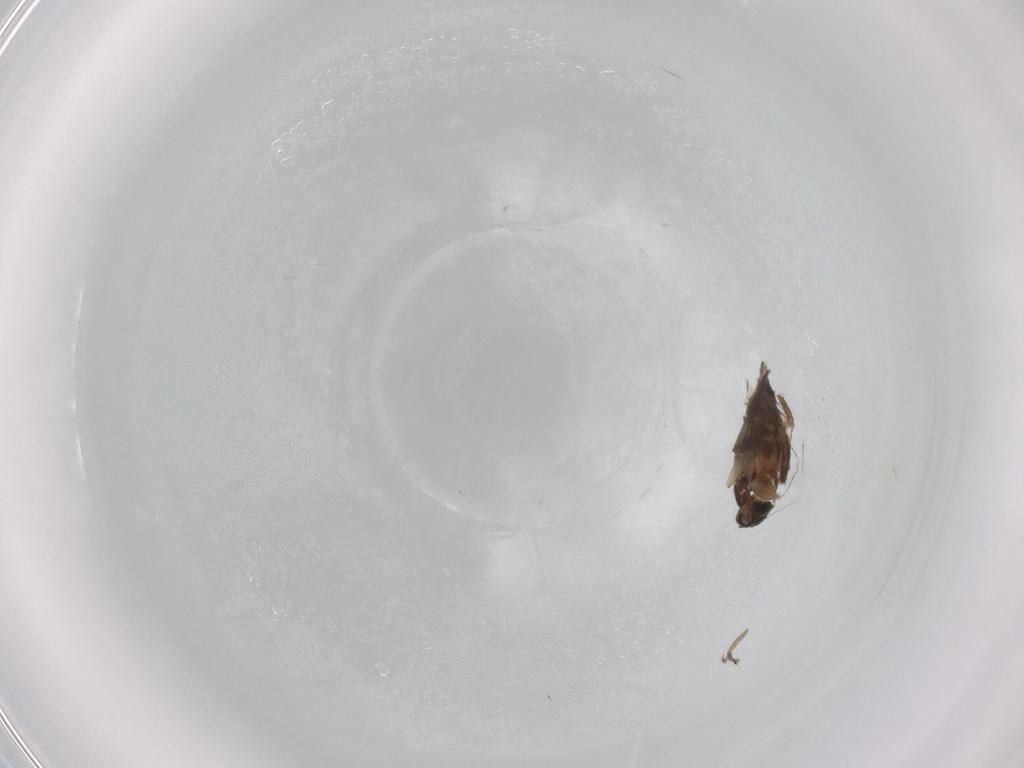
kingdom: Animalia
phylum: Arthropoda
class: Insecta
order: Diptera
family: Phoridae
